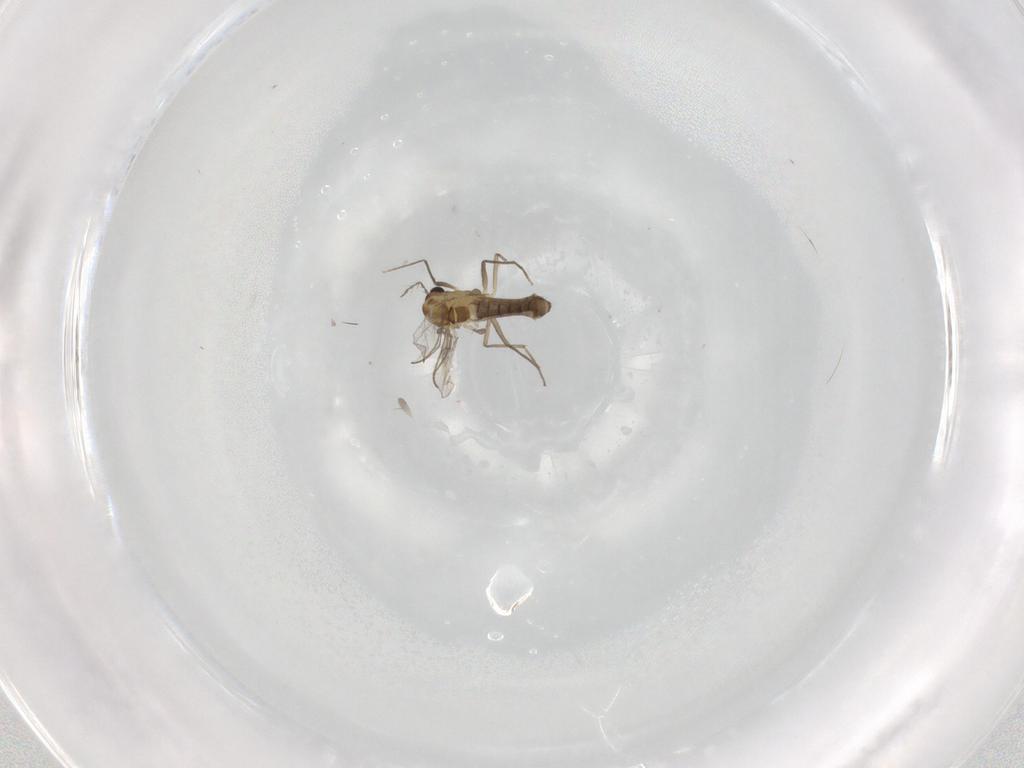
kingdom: Animalia
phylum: Arthropoda
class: Insecta
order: Diptera
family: Chironomidae
